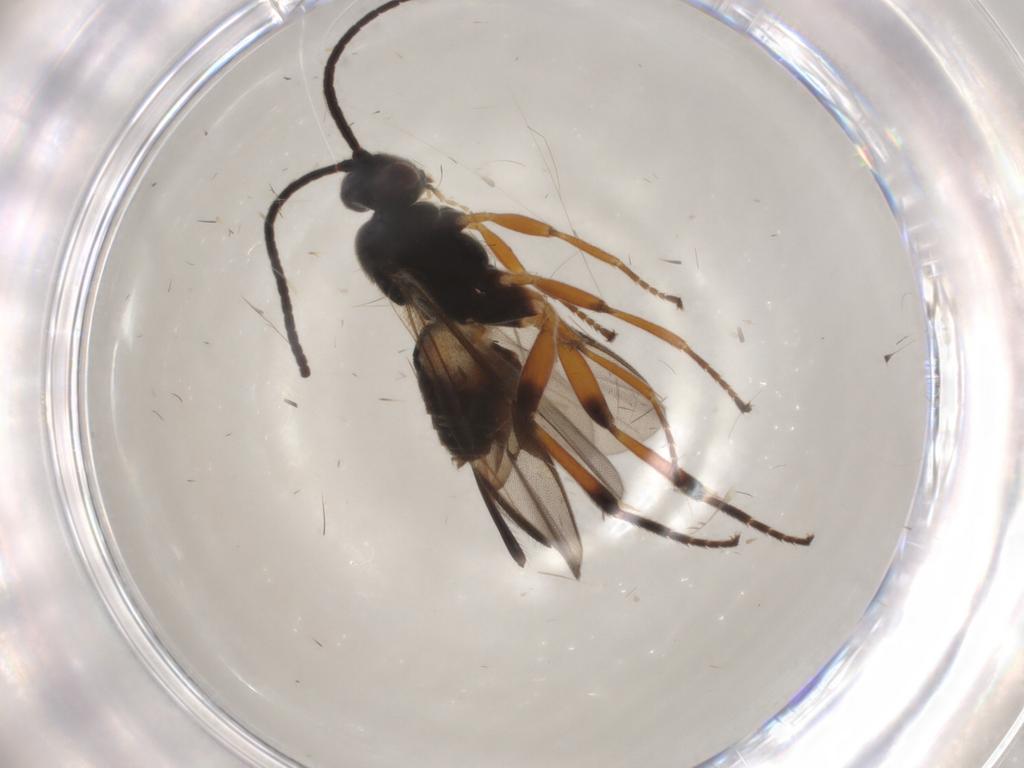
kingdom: Animalia
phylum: Arthropoda
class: Insecta
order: Hymenoptera
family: Braconidae
